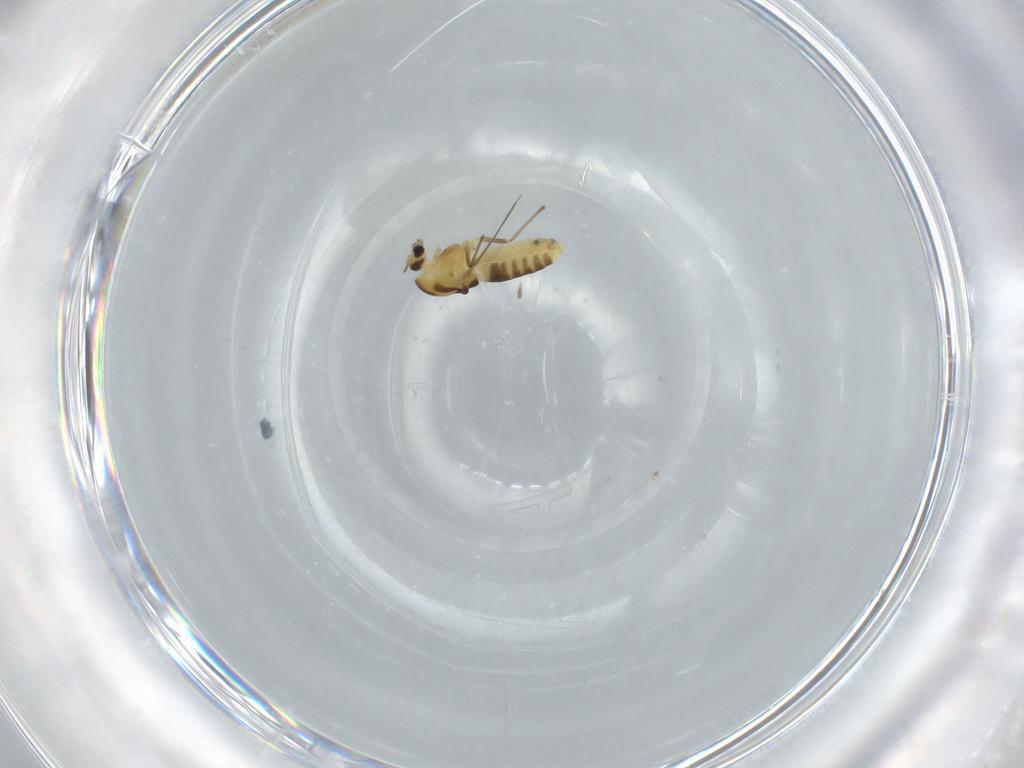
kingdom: Animalia
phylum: Arthropoda
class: Insecta
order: Diptera
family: Chironomidae
